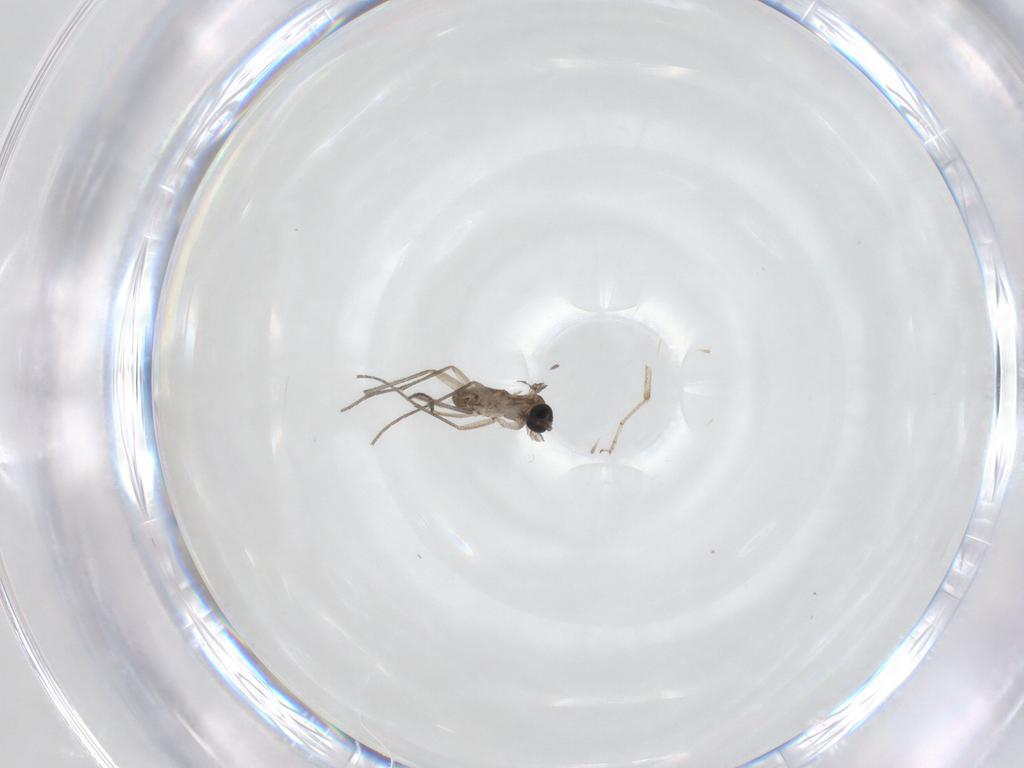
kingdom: Animalia
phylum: Arthropoda
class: Insecta
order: Diptera
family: Sciaridae
